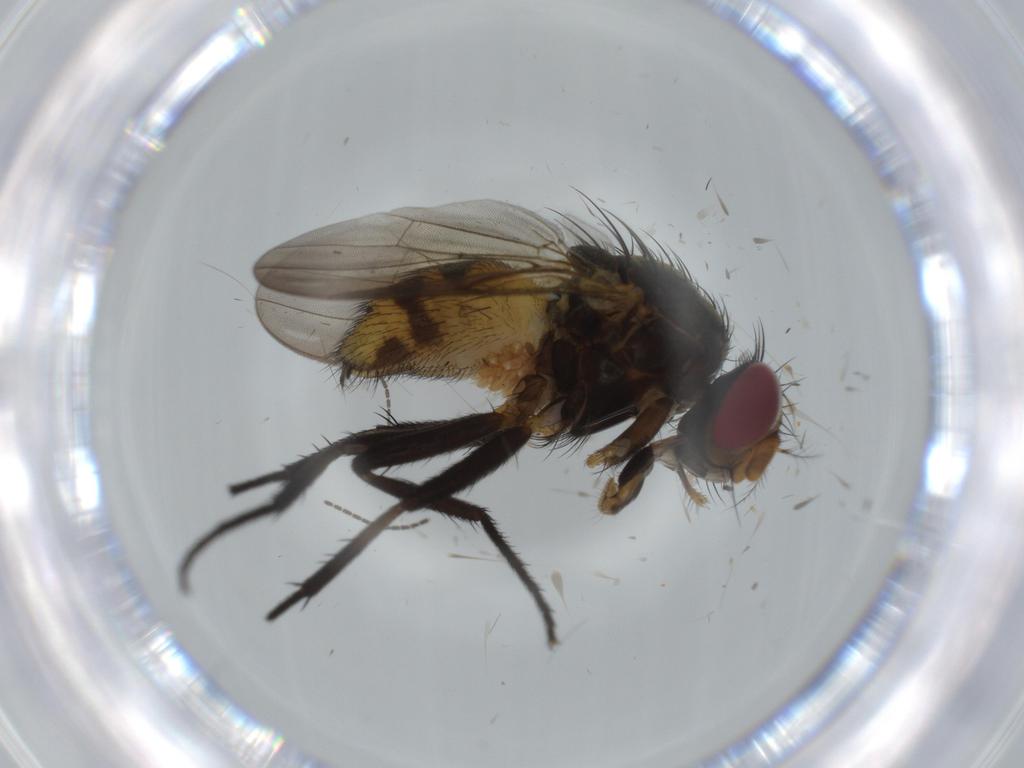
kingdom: Animalia
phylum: Arthropoda
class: Insecta
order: Diptera
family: Anthomyiidae
